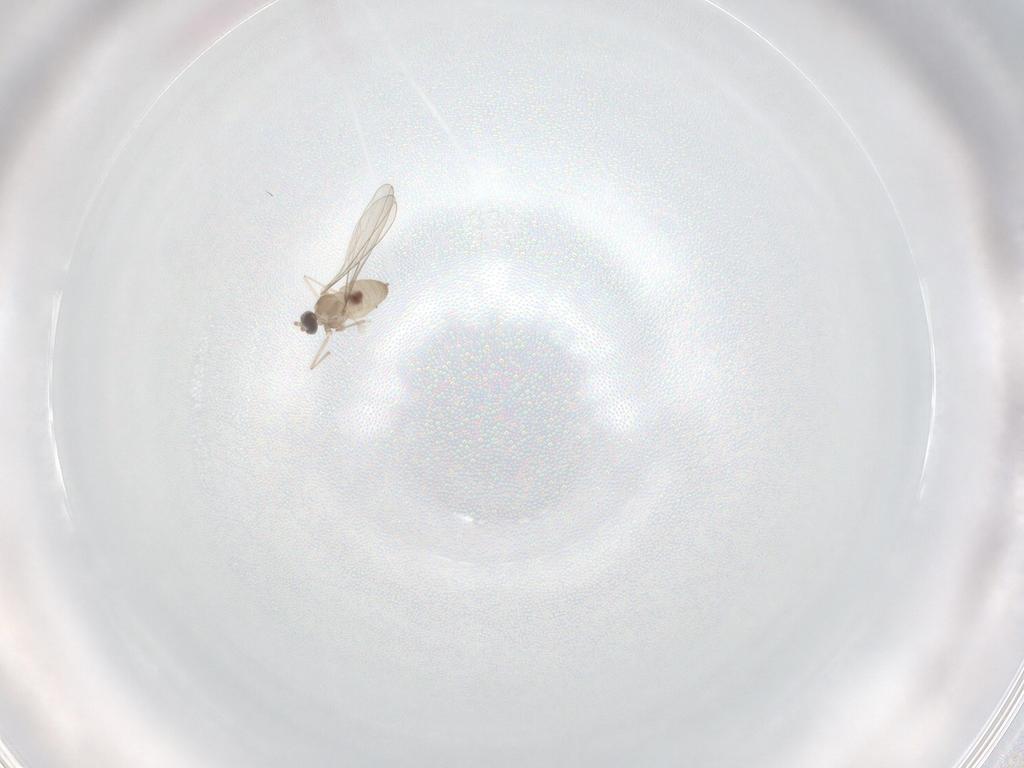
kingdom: Animalia
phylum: Arthropoda
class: Insecta
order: Diptera
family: Cecidomyiidae
